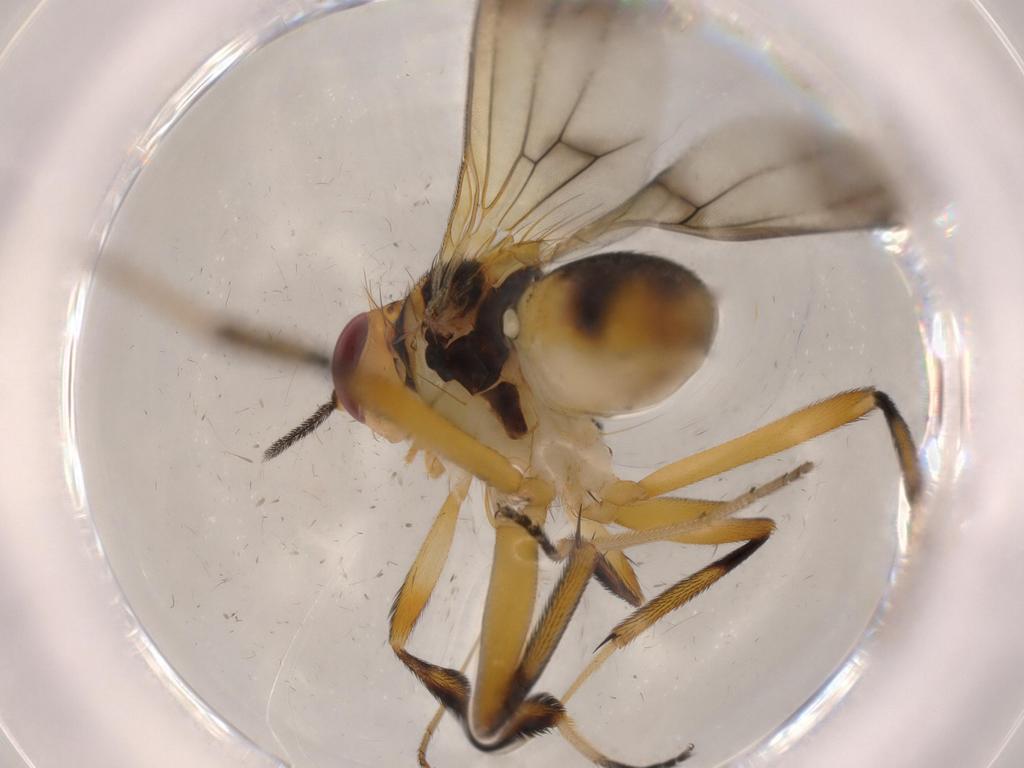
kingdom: Animalia
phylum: Arthropoda
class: Insecta
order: Diptera
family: Clusiidae
